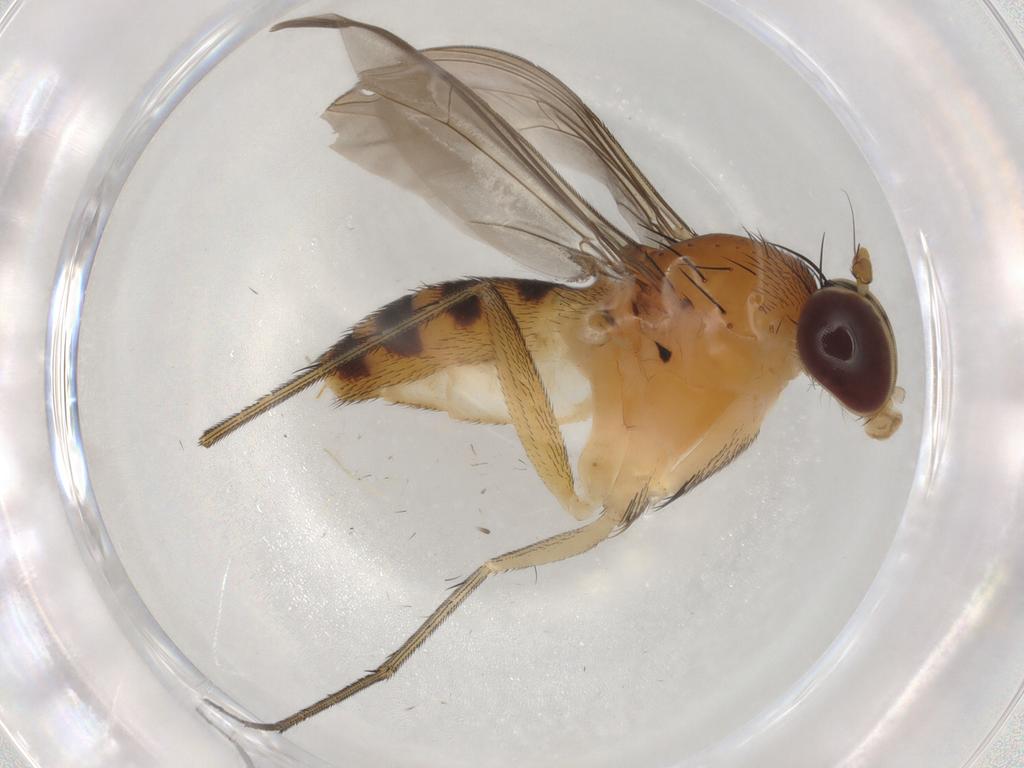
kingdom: Animalia
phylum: Arthropoda
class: Insecta
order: Diptera
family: Dolichopodidae
